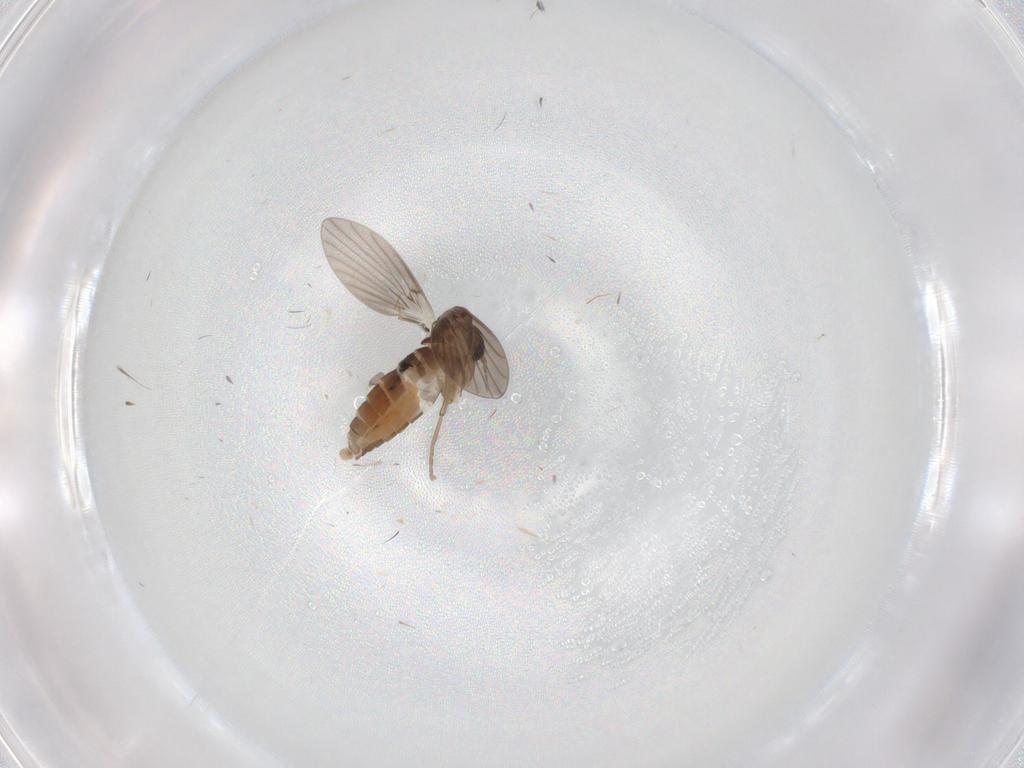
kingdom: Animalia
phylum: Arthropoda
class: Insecta
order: Diptera
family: Psychodidae
